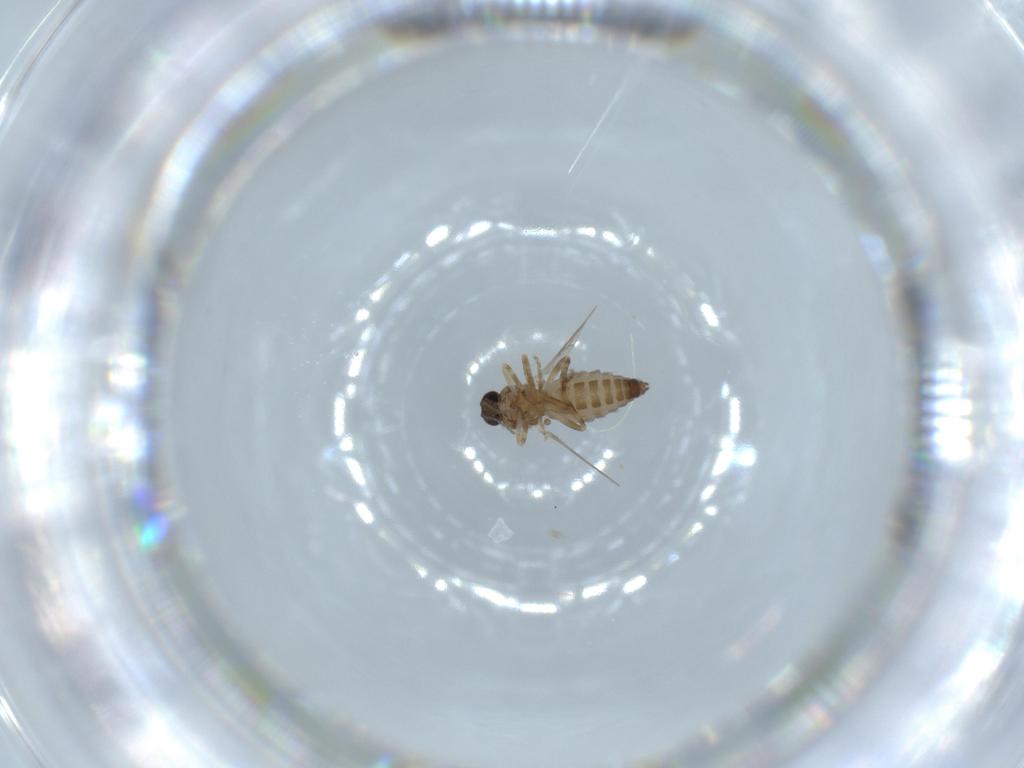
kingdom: Animalia
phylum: Arthropoda
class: Insecta
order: Diptera
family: Ceratopogonidae
